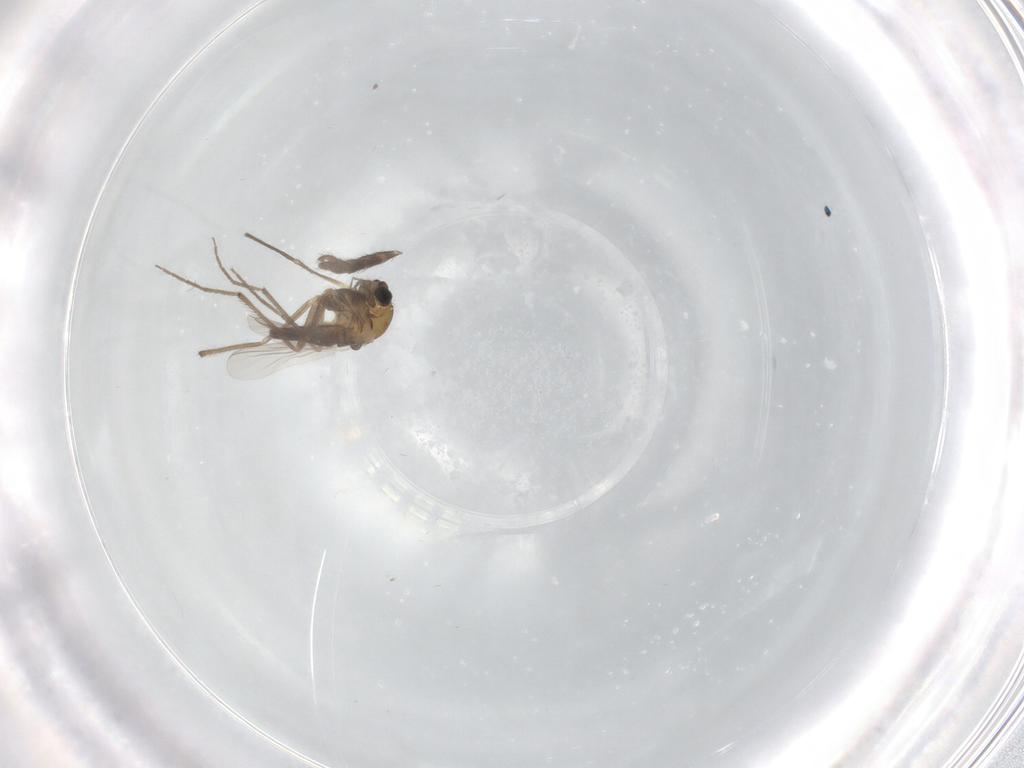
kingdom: Animalia
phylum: Arthropoda
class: Insecta
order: Diptera
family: Chironomidae
